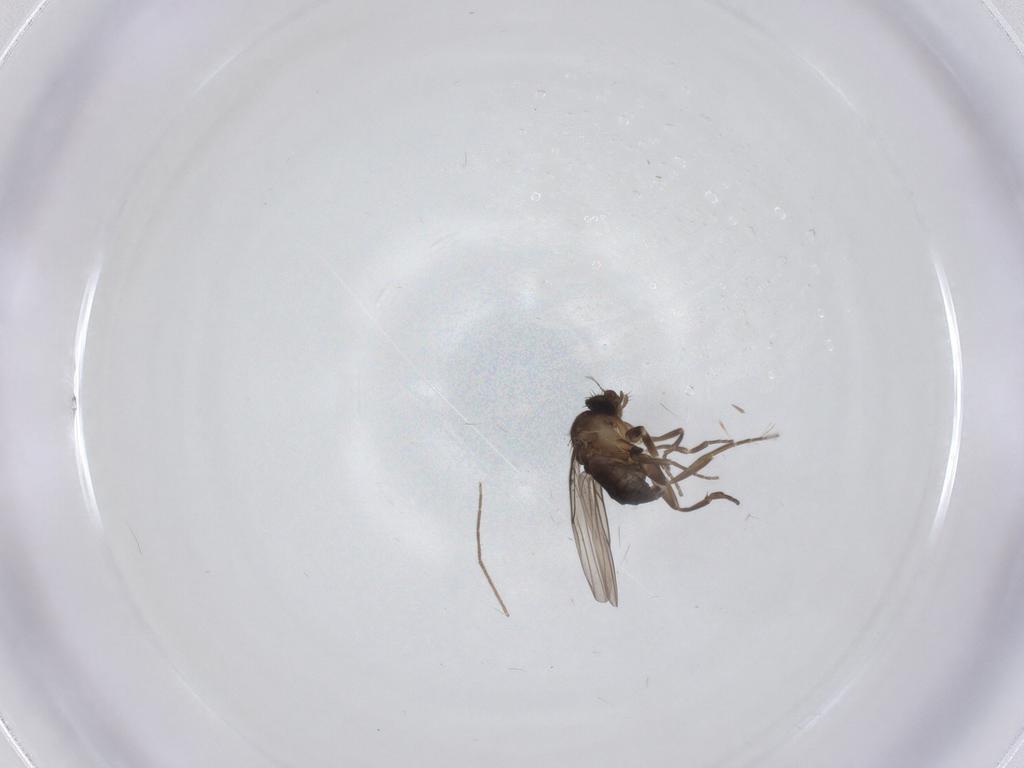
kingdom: Animalia
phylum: Arthropoda
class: Insecta
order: Diptera
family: Chironomidae
